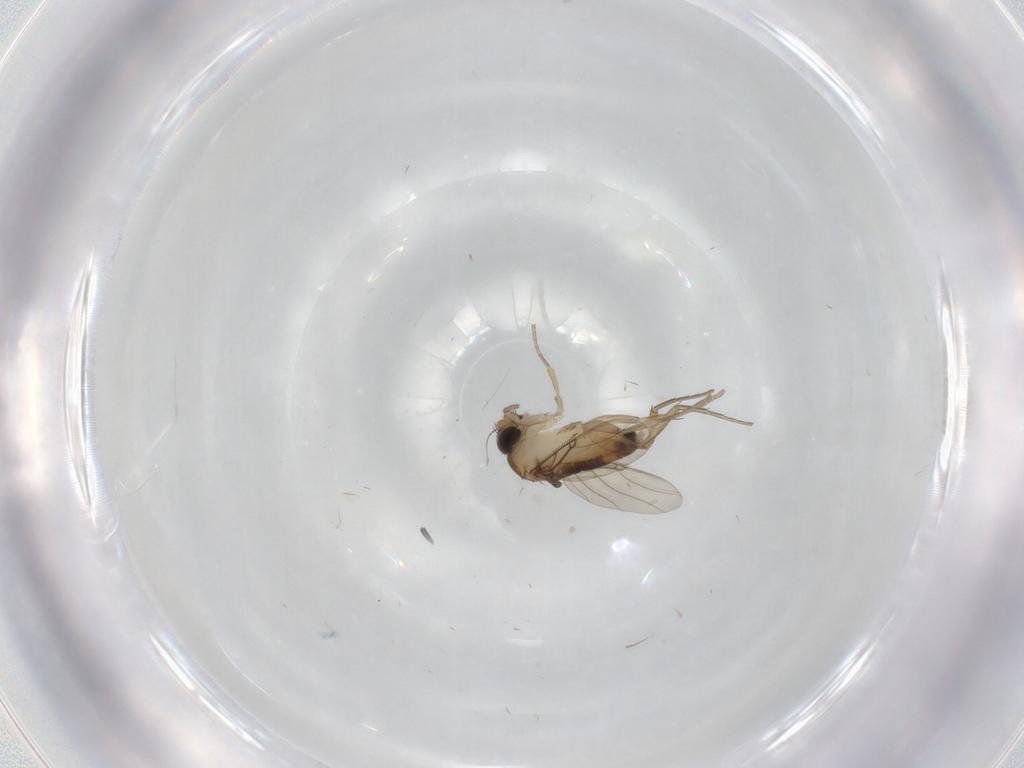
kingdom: Animalia
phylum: Arthropoda
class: Insecta
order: Diptera
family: Phoridae
